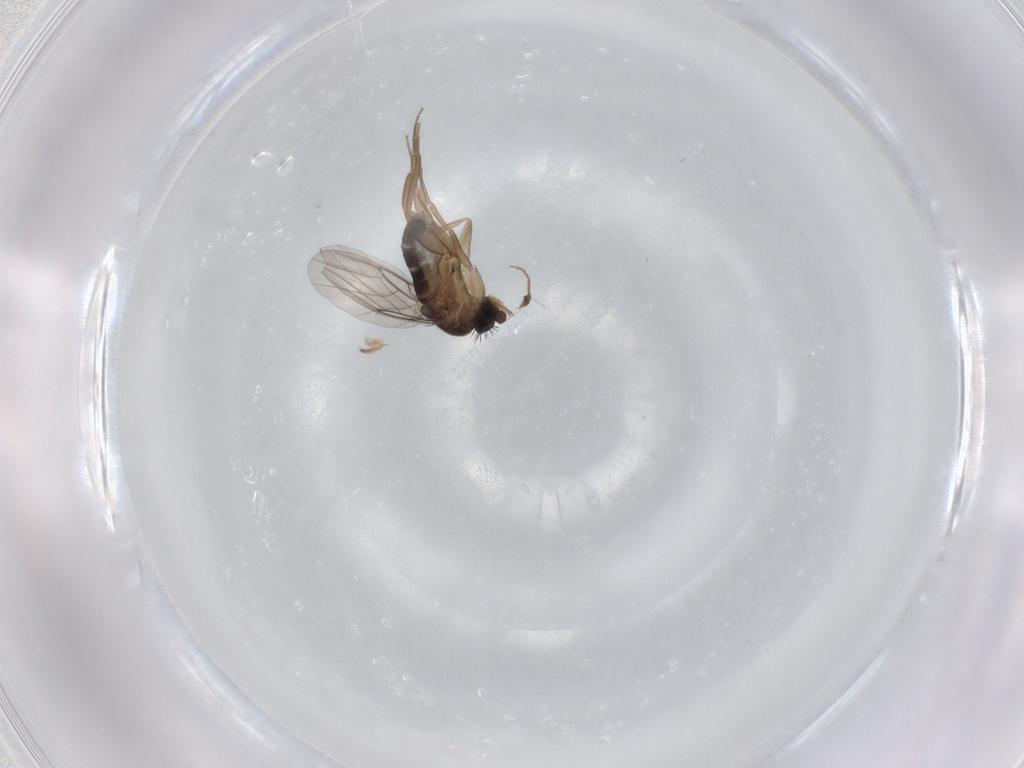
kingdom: Animalia
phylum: Arthropoda
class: Insecta
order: Diptera
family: Phoridae
